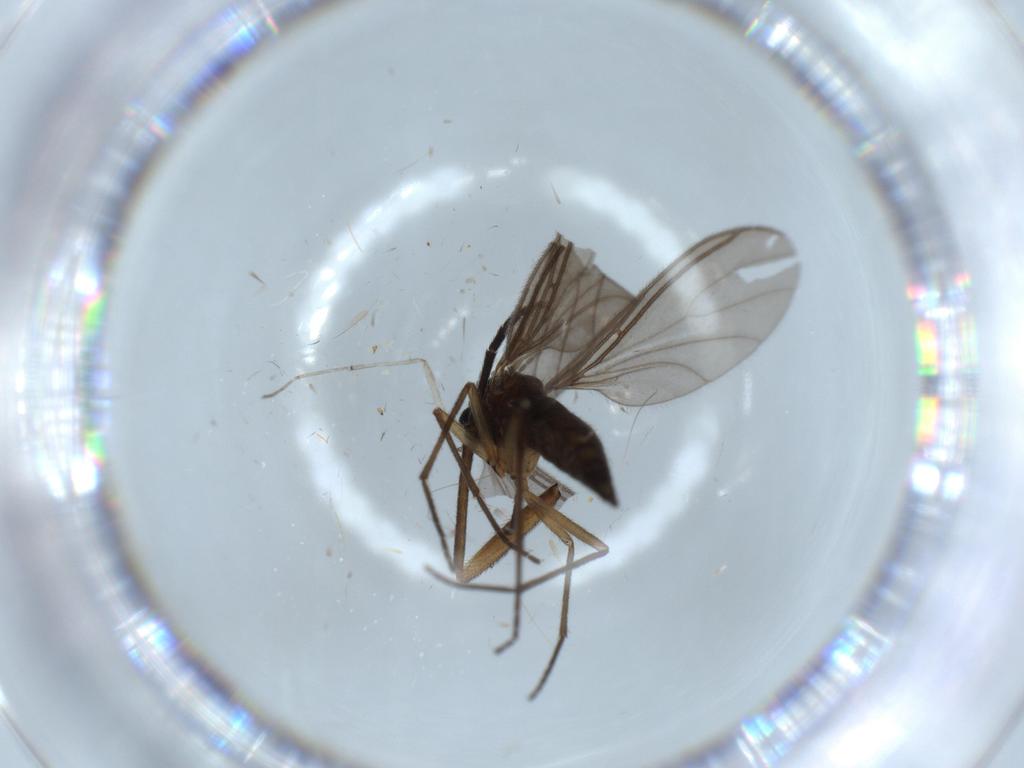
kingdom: Animalia
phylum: Arthropoda
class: Insecta
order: Diptera
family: Sciaridae
